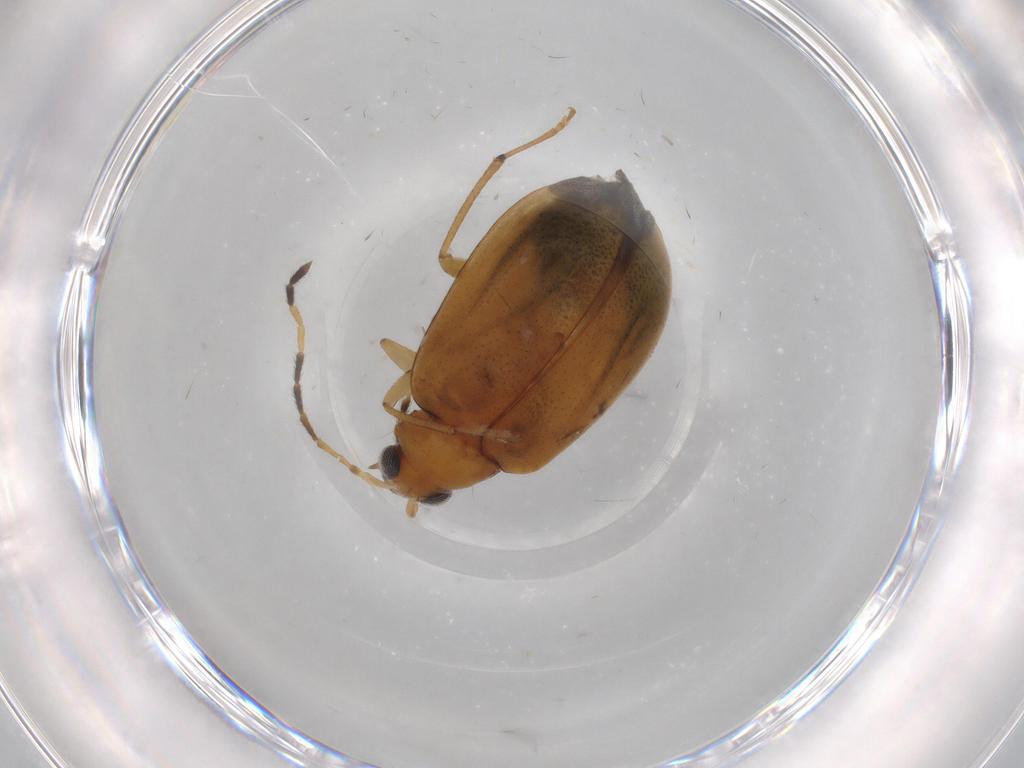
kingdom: Animalia
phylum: Arthropoda
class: Insecta
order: Coleoptera
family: Chrysomelidae
